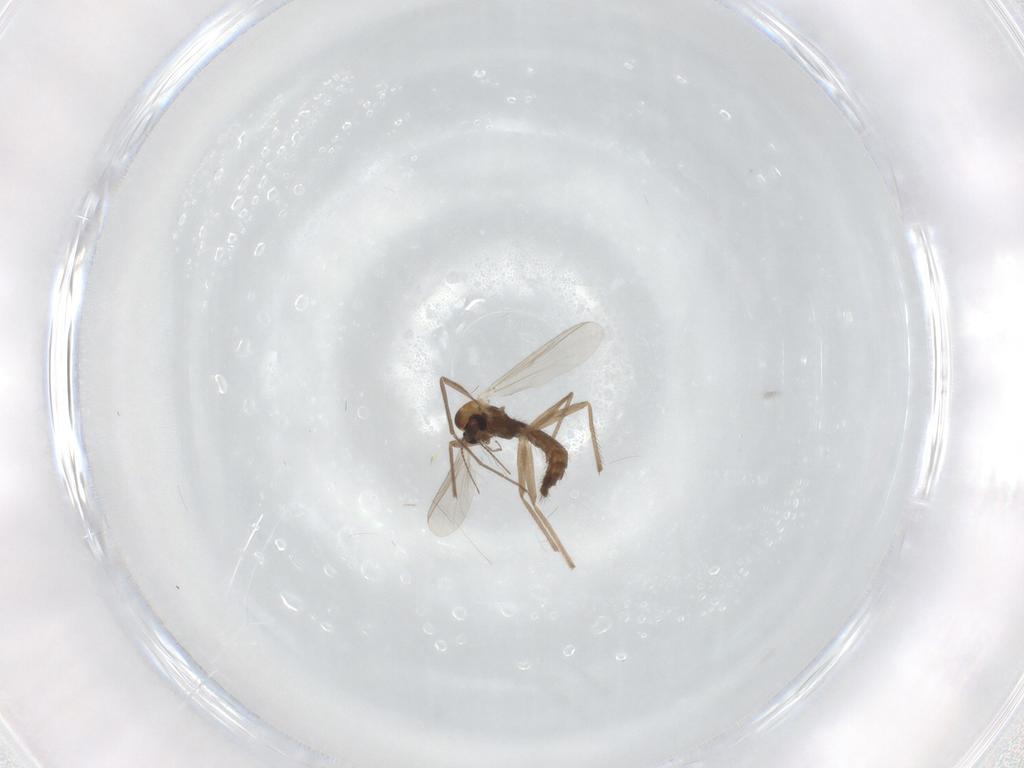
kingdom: Animalia
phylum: Arthropoda
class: Insecta
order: Diptera
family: Chironomidae
